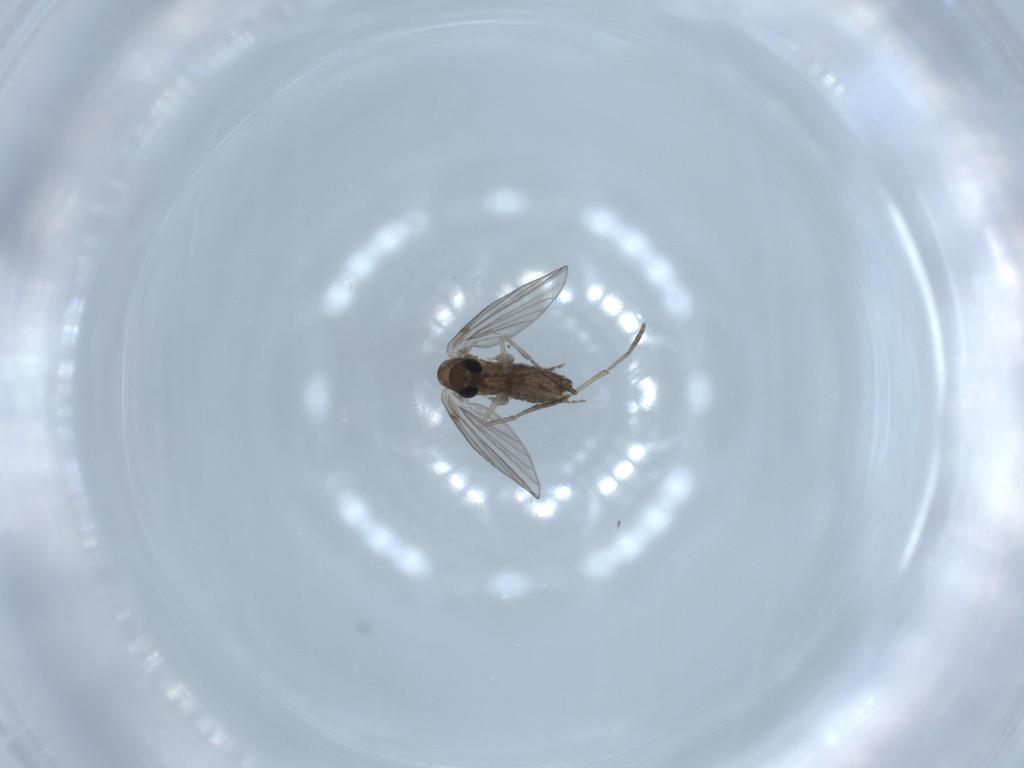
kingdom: Animalia
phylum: Arthropoda
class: Insecta
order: Diptera
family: Psychodidae
